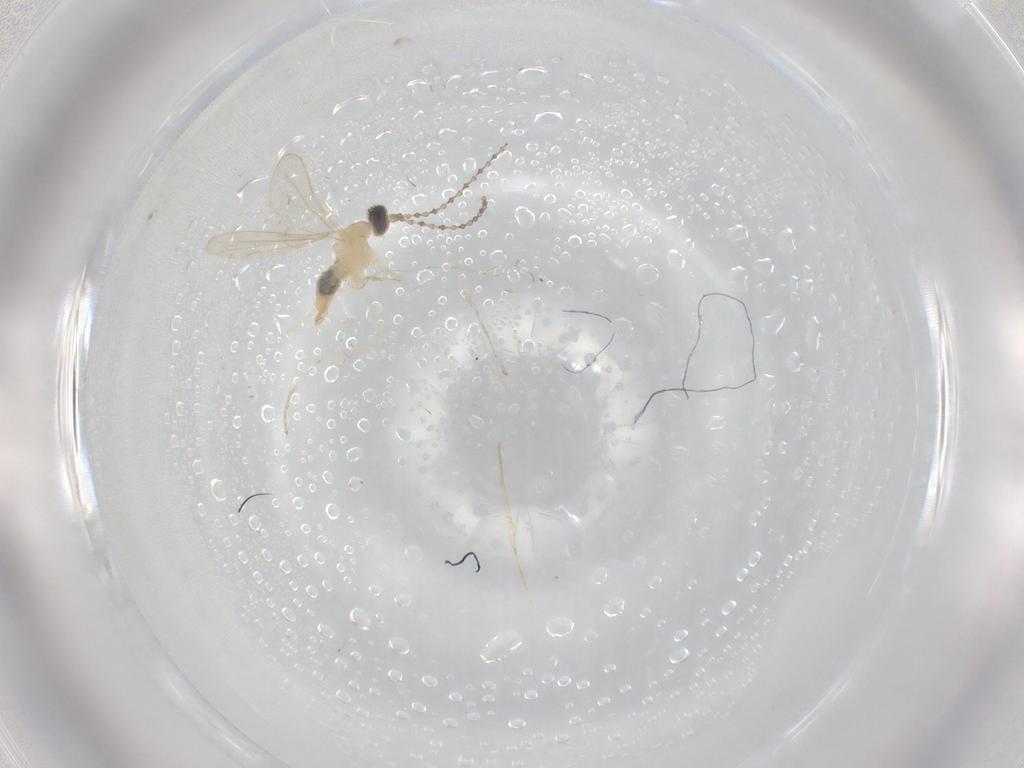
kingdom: Animalia
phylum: Arthropoda
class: Insecta
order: Diptera
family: Cecidomyiidae
